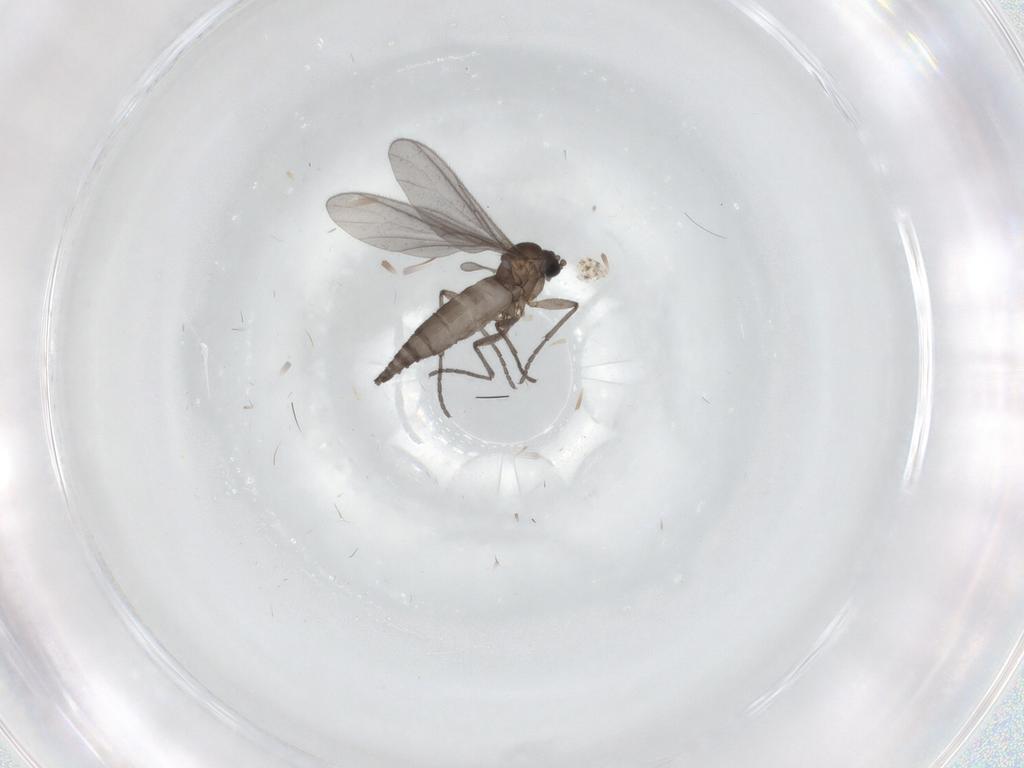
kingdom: Animalia
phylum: Arthropoda
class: Insecta
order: Diptera
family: Sciaridae
